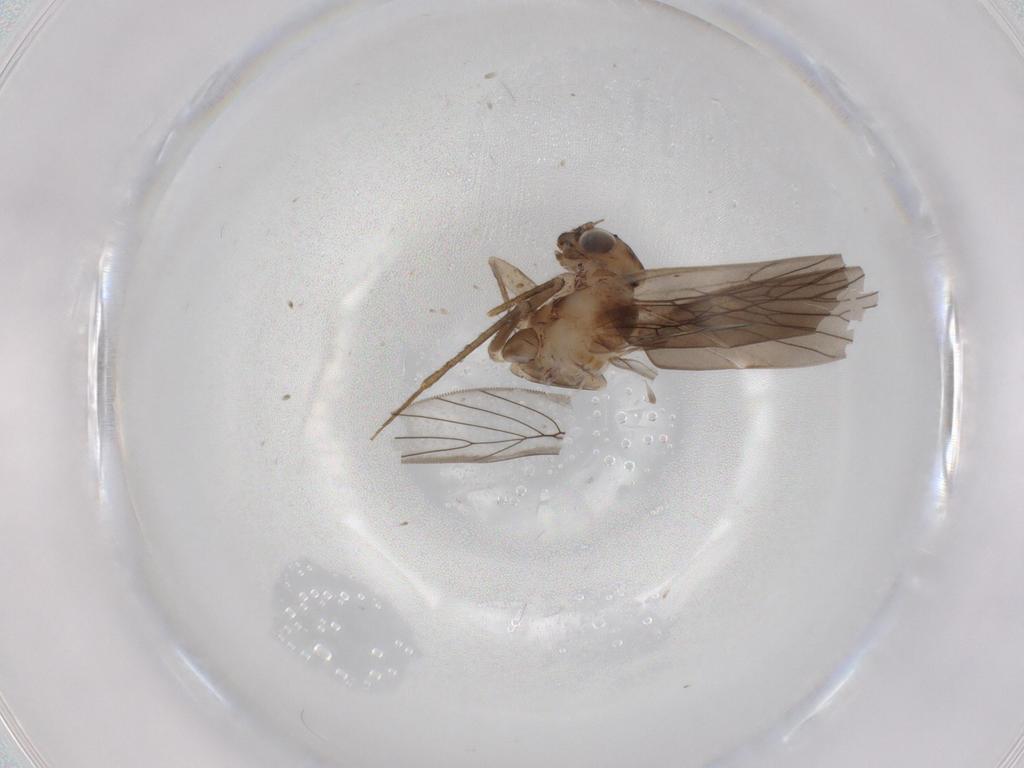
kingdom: Animalia
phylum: Arthropoda
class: Insecta
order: Psocodea
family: Lepidopsocidae
